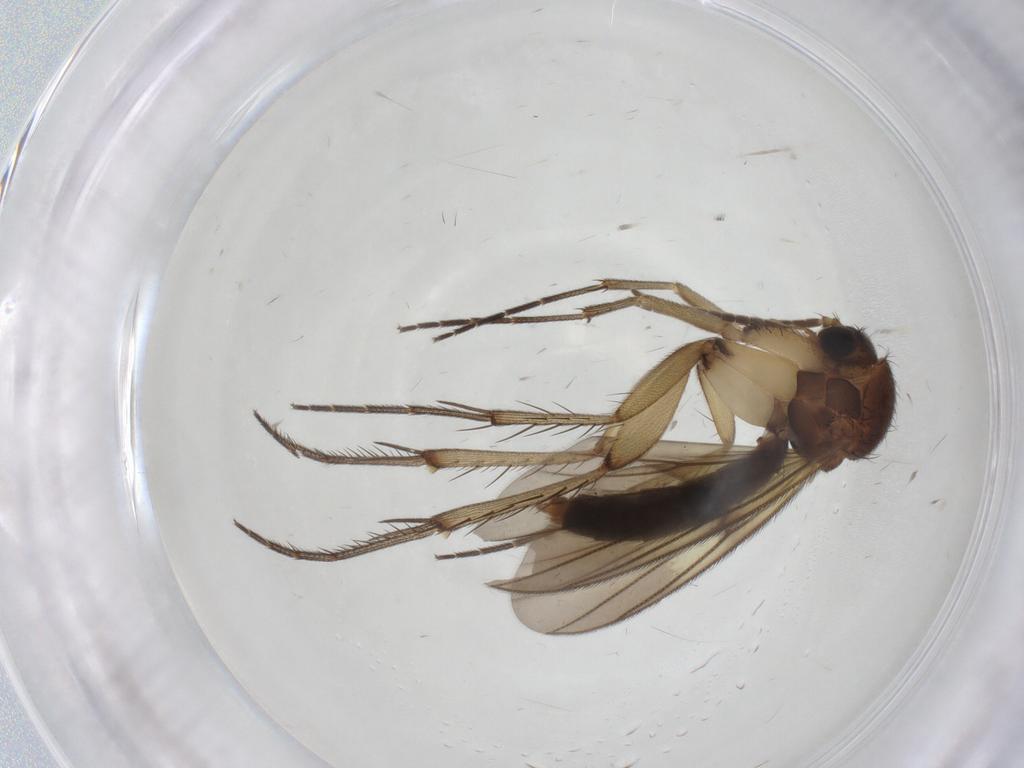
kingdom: Animalia
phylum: Arthropoda
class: Insecta
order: Diptera
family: Mycetophilidae
